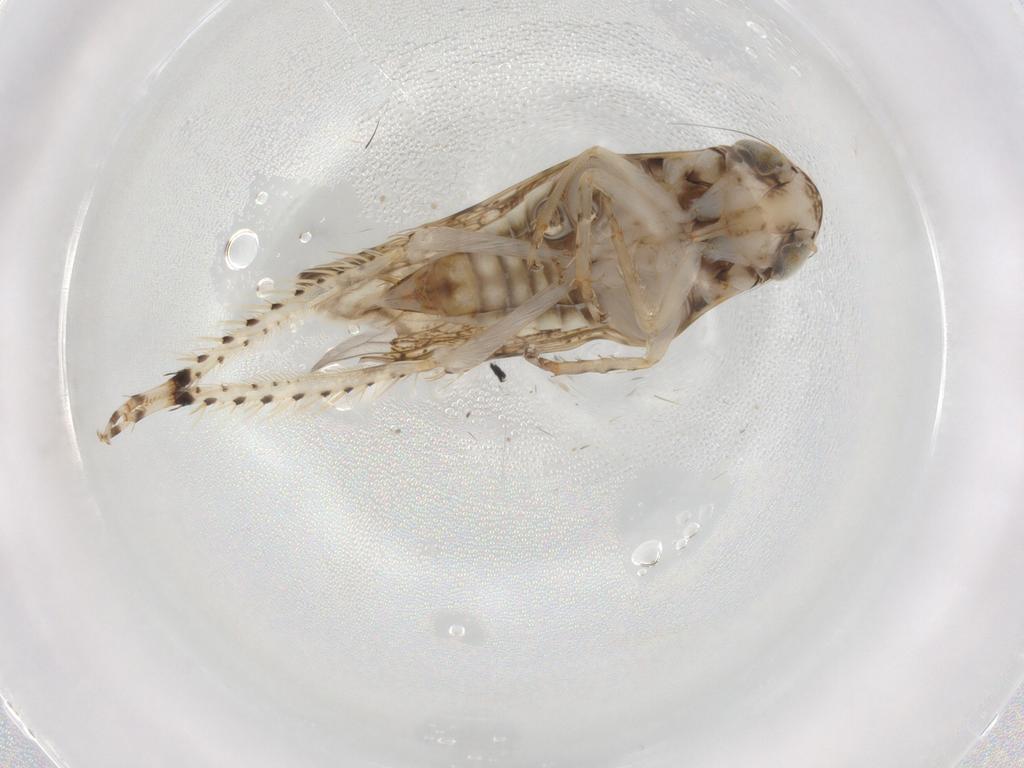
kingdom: Animalia
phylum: Arthropoda
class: Insecta
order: Hemiptera
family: Cicadellidae
